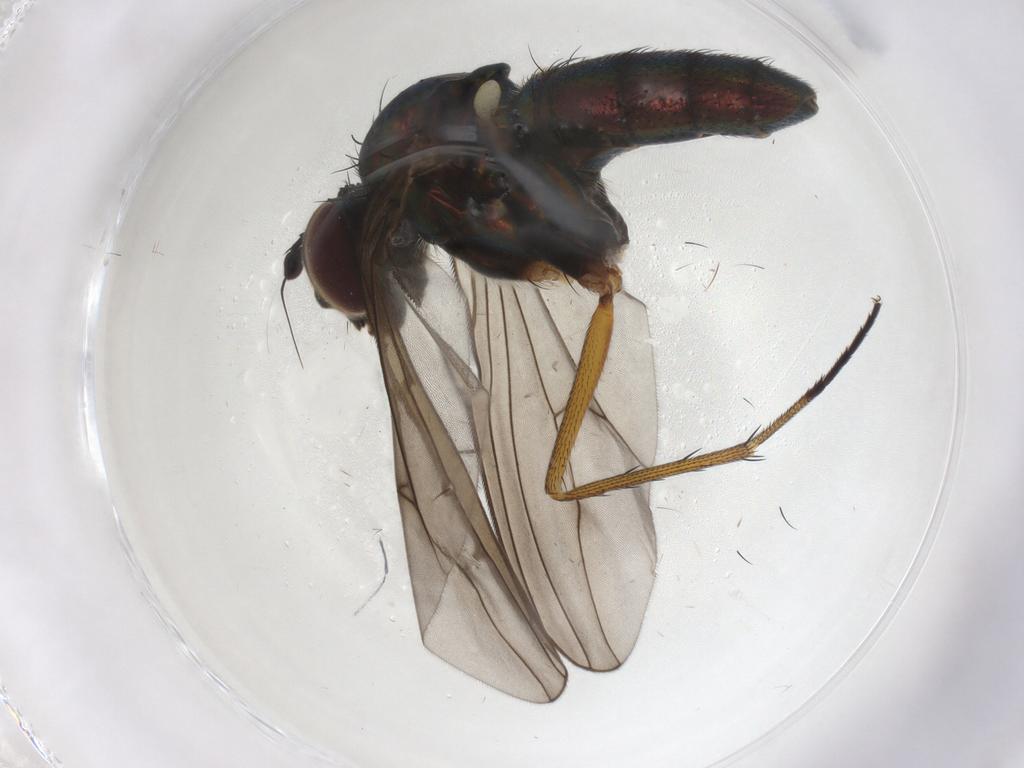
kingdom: Animalia
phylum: Arthropoda
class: Insecta
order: Diptera
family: Dolichopodidae
